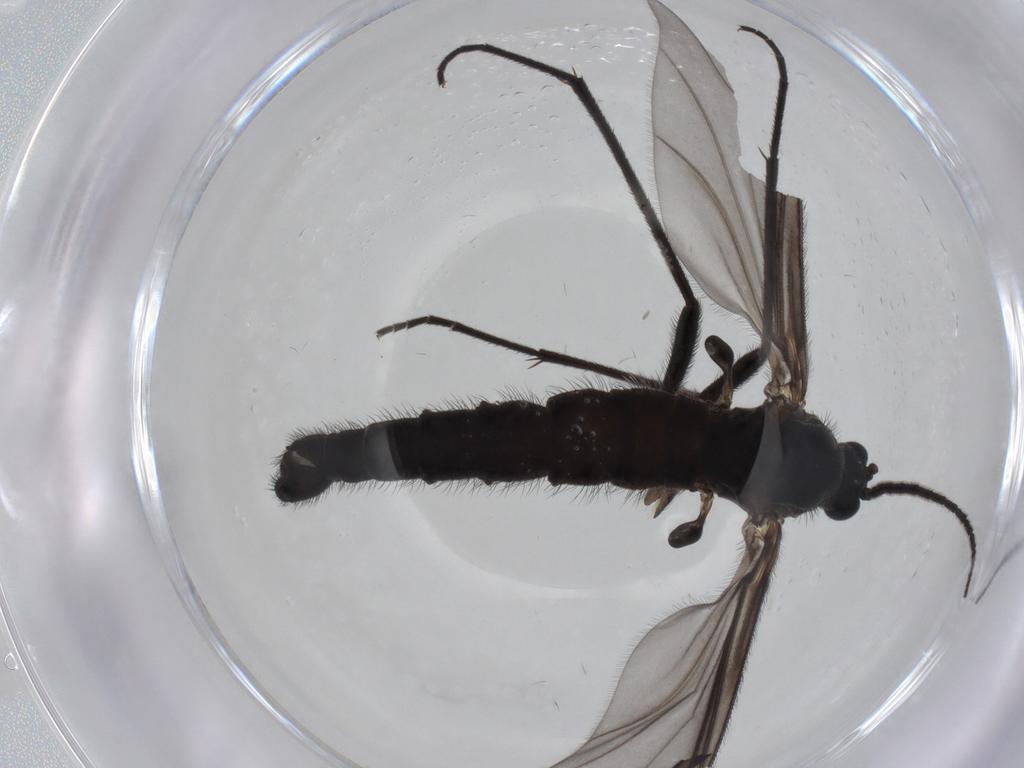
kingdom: Animalia
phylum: Arthropoda
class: Insecta
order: Diptera
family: Cecidomyiidae
